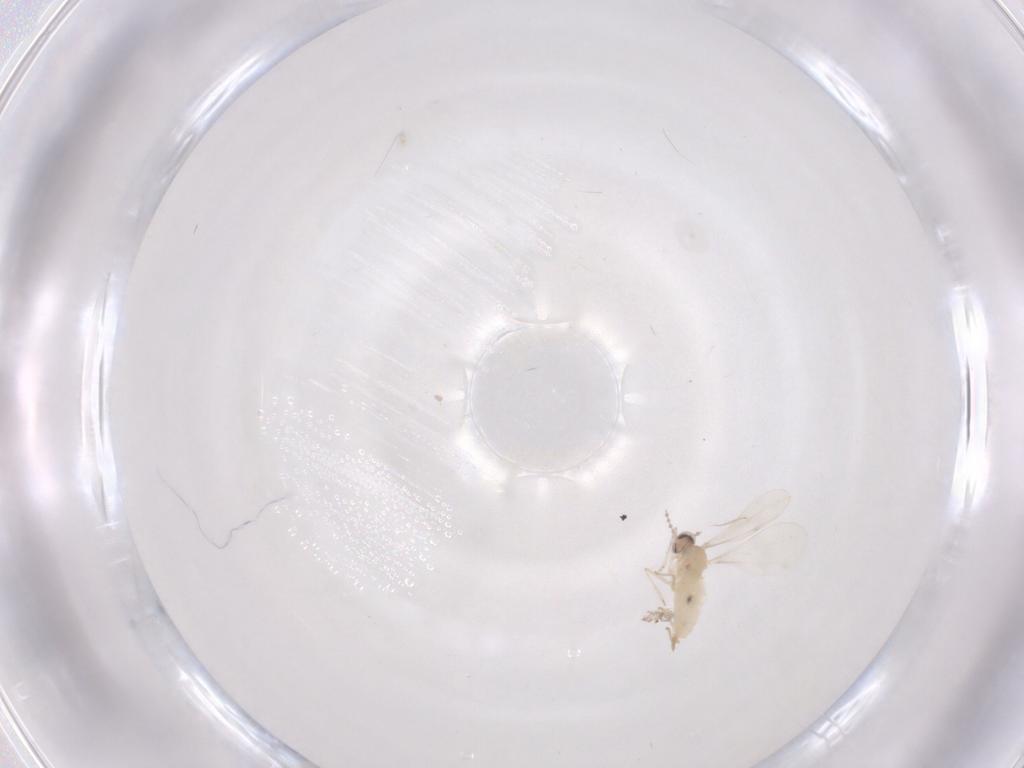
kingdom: Animalia
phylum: Arthropoda
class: Insecta
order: Diptera
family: Cecidomyiidae
